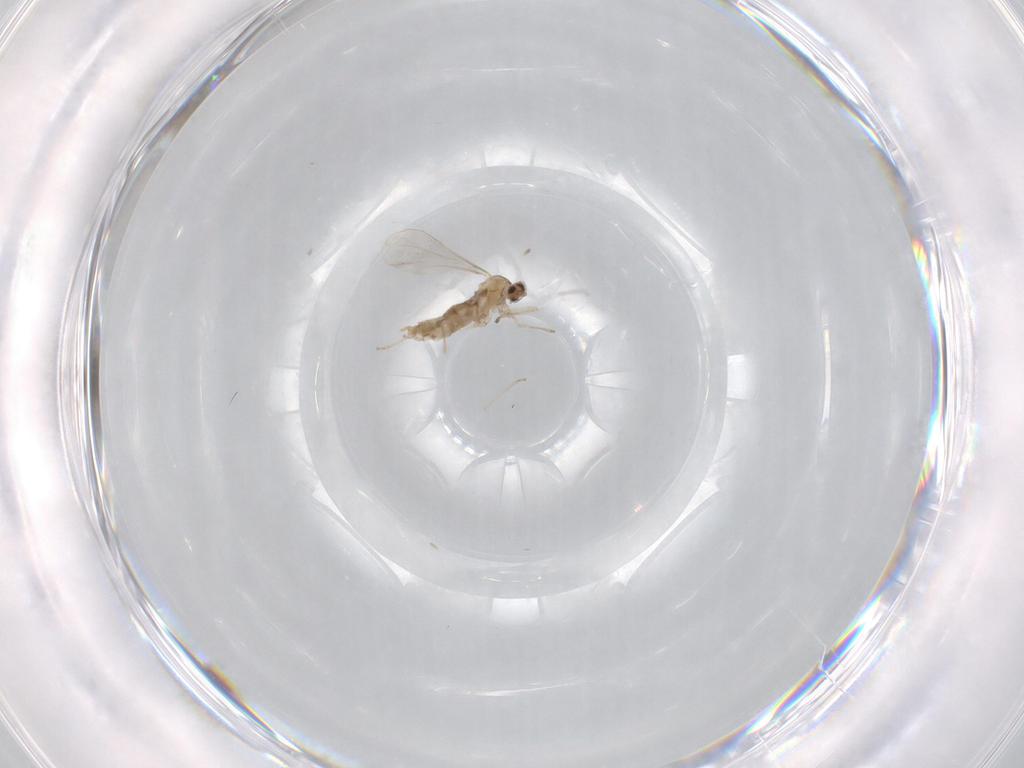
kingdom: Animalia
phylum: Arthropoda
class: Insecta
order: Diptera
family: Cecidomyiidae
